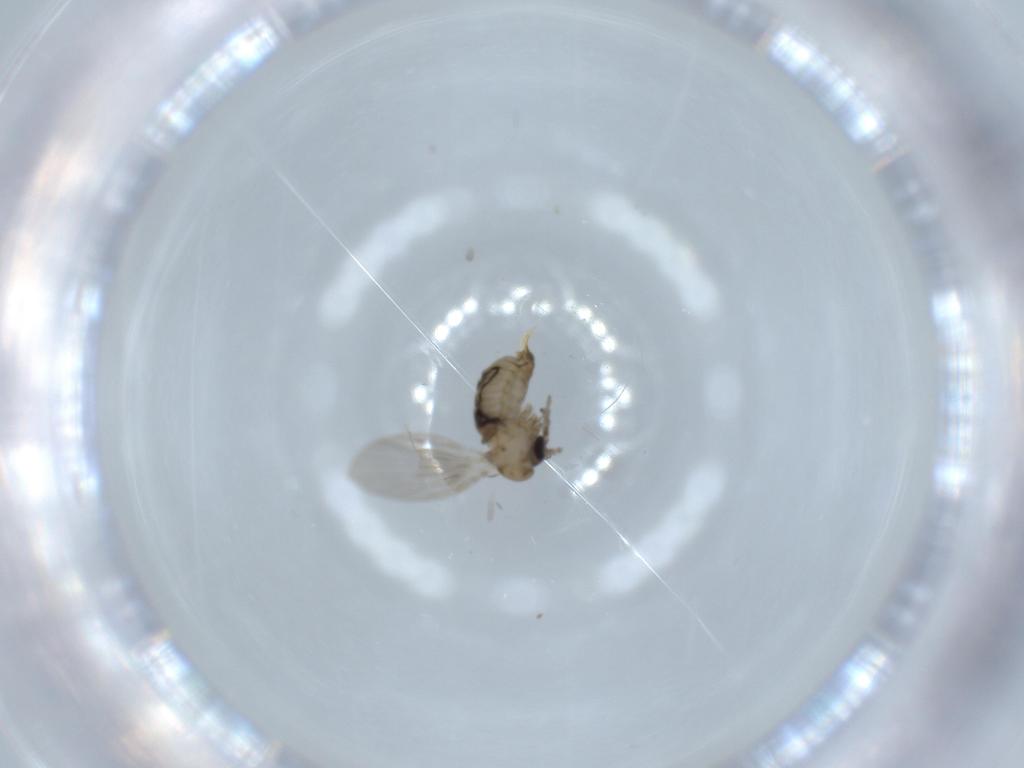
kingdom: Animalia
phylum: Arthropoda
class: Insecta
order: Diptera
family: Psychodidae
